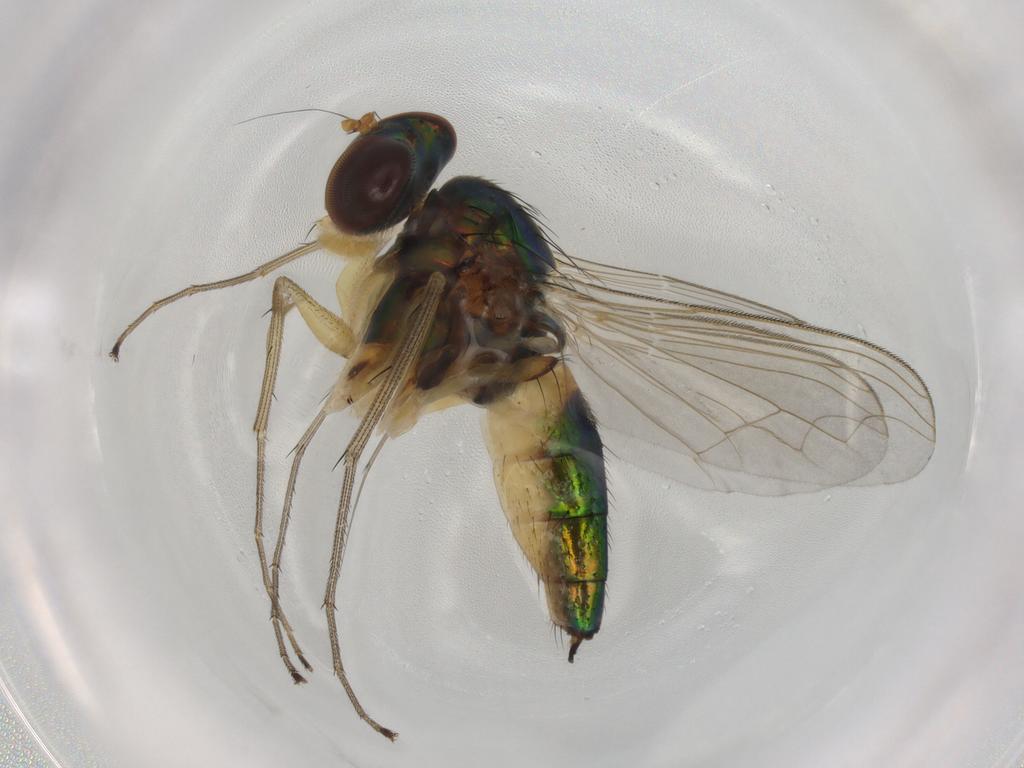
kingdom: Animalia
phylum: Arthropoda
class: Insecta
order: Diptera
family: Dolichopodidae
